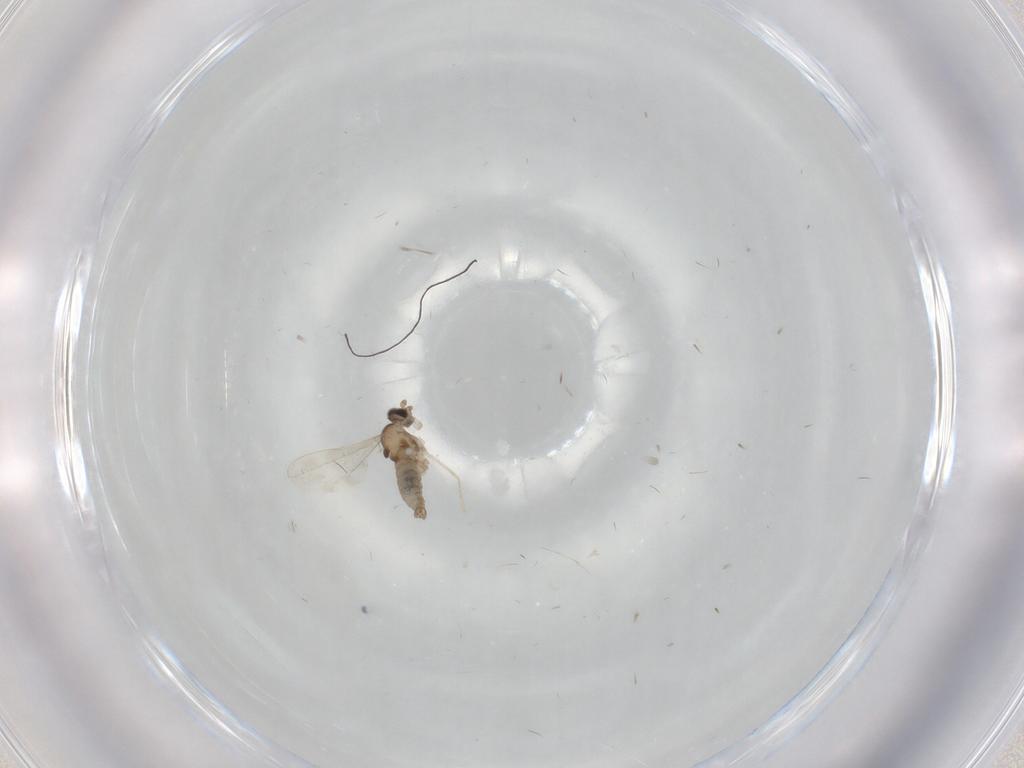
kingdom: Animalia
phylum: Arthropoda
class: Insecta
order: Diptera
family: Cecidomyiidae
